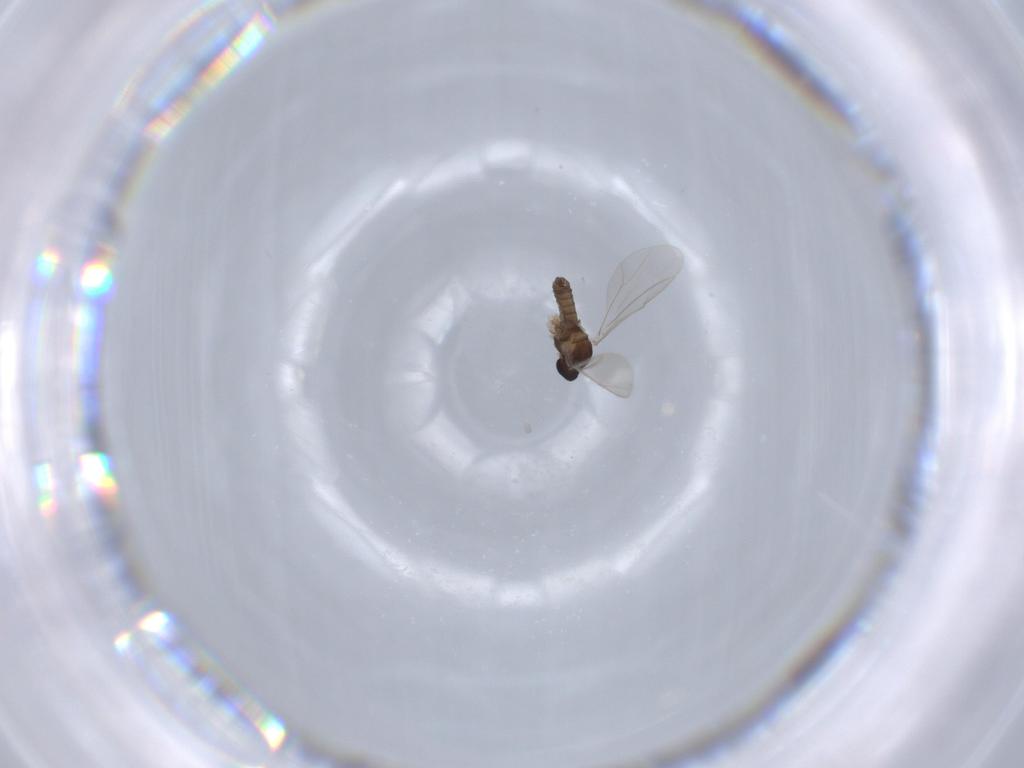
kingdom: Animalia
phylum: Arthropoda
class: Insecta
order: Diptera
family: Cecidomyiidae
